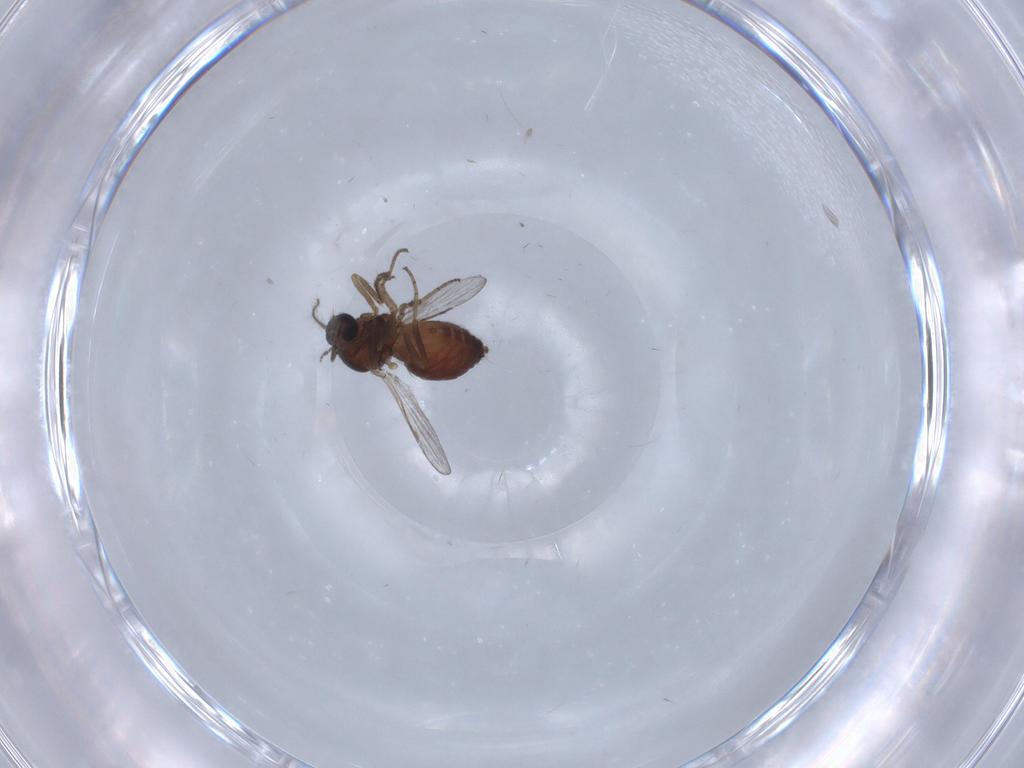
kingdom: Animalia
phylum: Arthropoda
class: Insecta
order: Diptera
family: Ceratopogonidae
